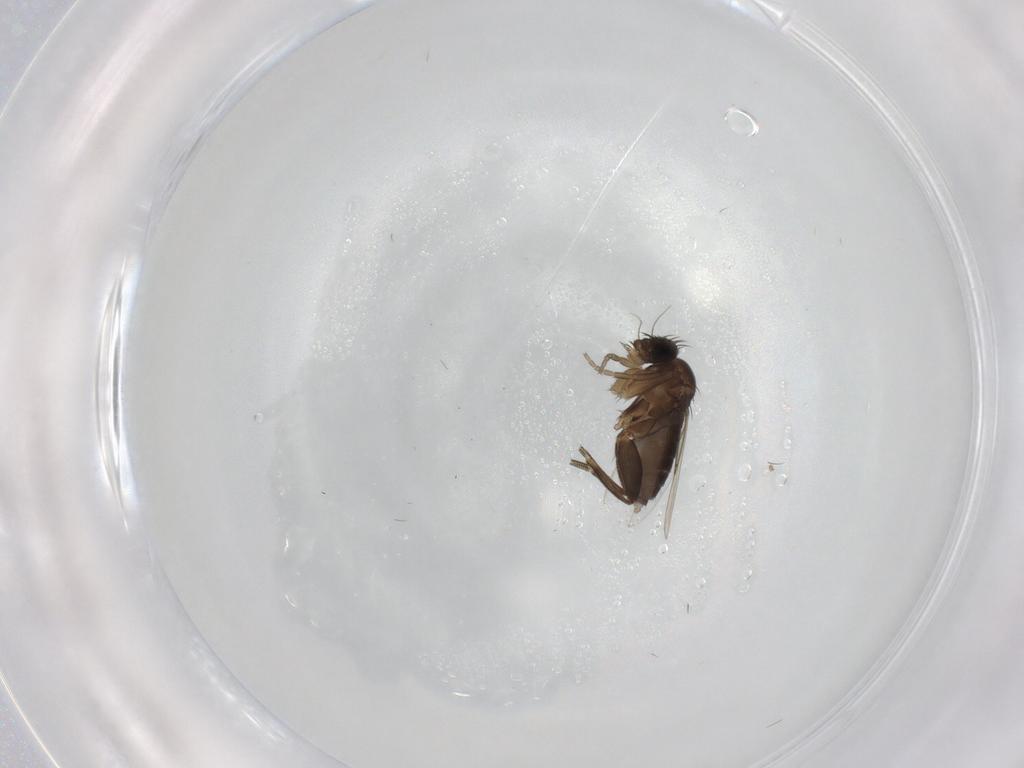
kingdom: Animalia
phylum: Arthropoda
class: Insecta
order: Diptera
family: Phoridae
